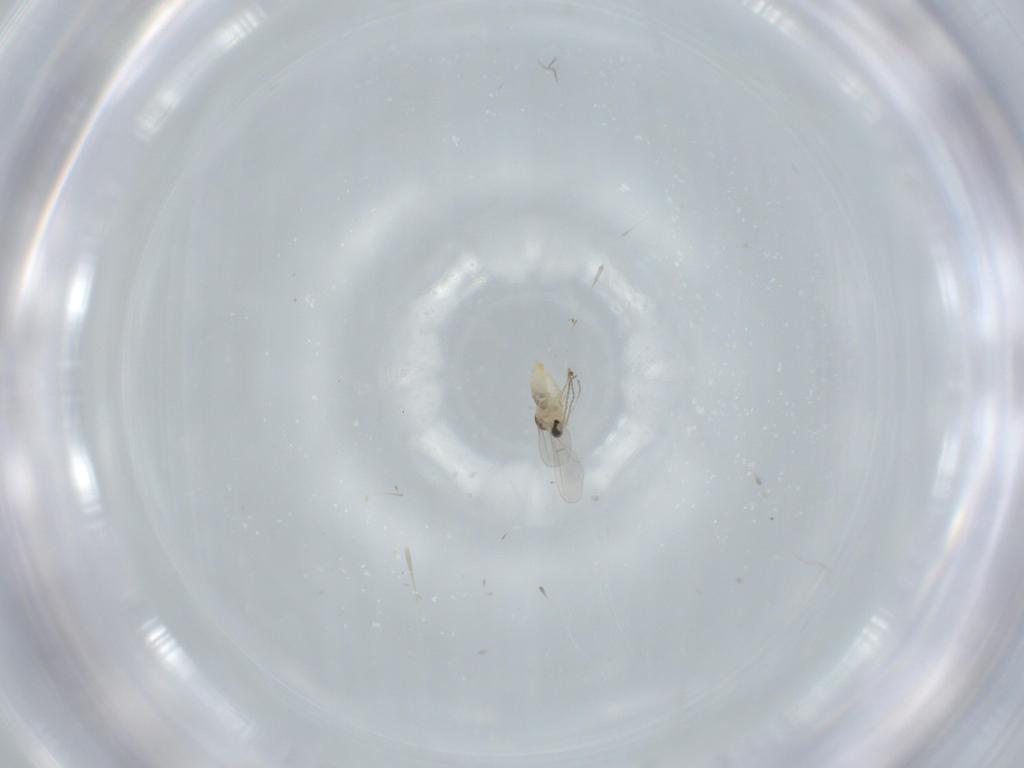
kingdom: Animalia
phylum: Arthropoda
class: Insecta
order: Diptera
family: Cecidomyiidae
